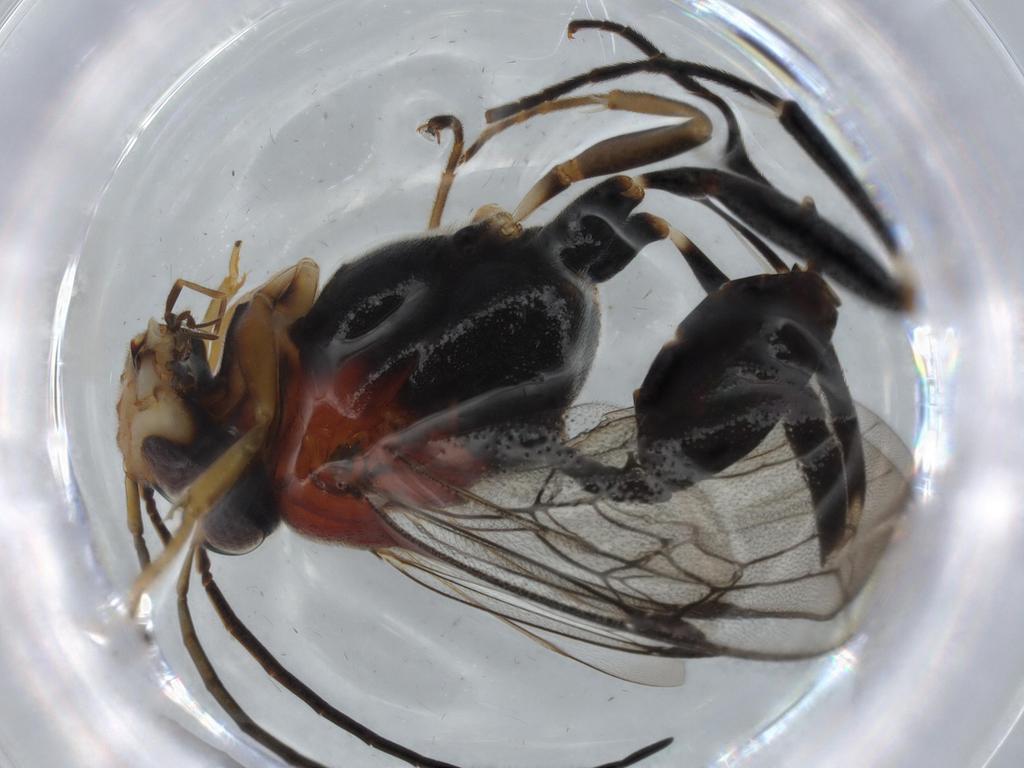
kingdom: Animalia
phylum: Arthropoda
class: Insecta
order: Hymenoptera
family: Evaniidae
